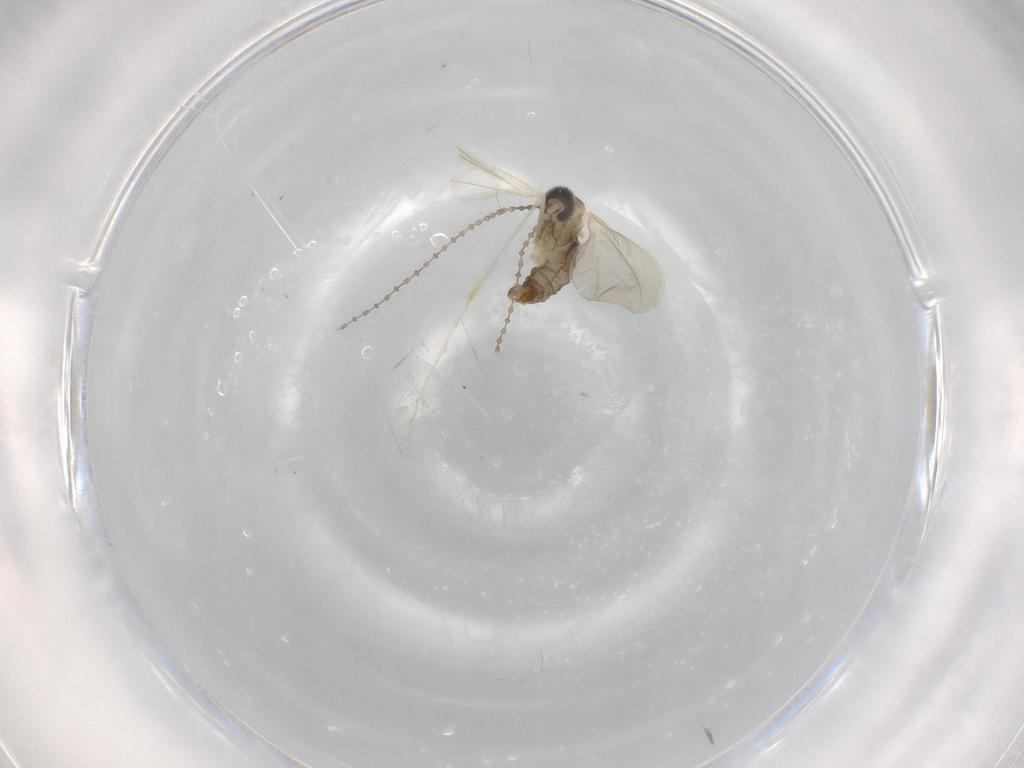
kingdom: Animalia
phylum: Arthropoda
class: Insecta
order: Diptera
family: Cecidomyiidae
